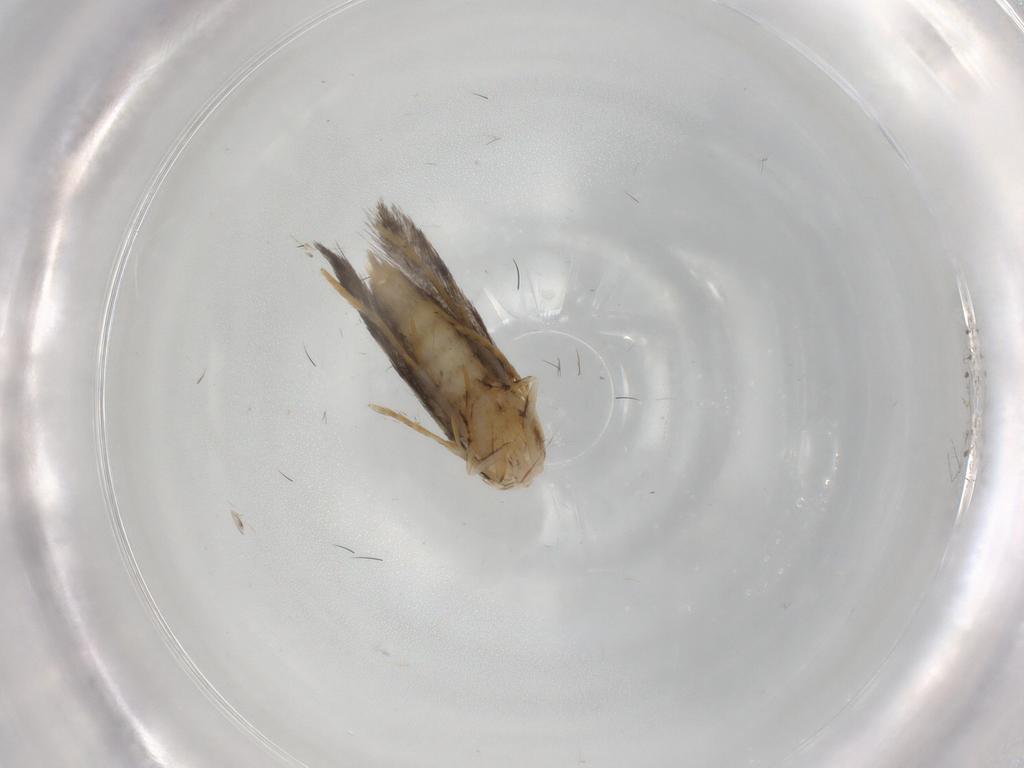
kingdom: Animalia
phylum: Arthropoda
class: Insecta
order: Lepidoptera
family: Tineidae
